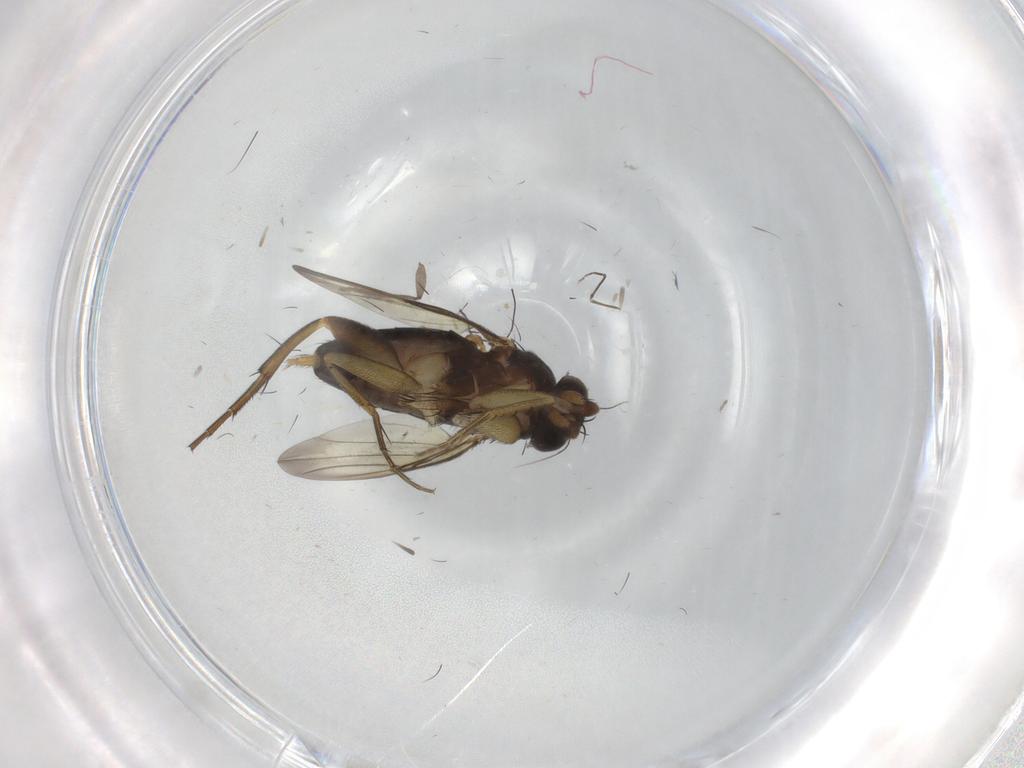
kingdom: Animalia
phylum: Arthropoda
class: Insecta
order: Diptera
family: Phoridae
